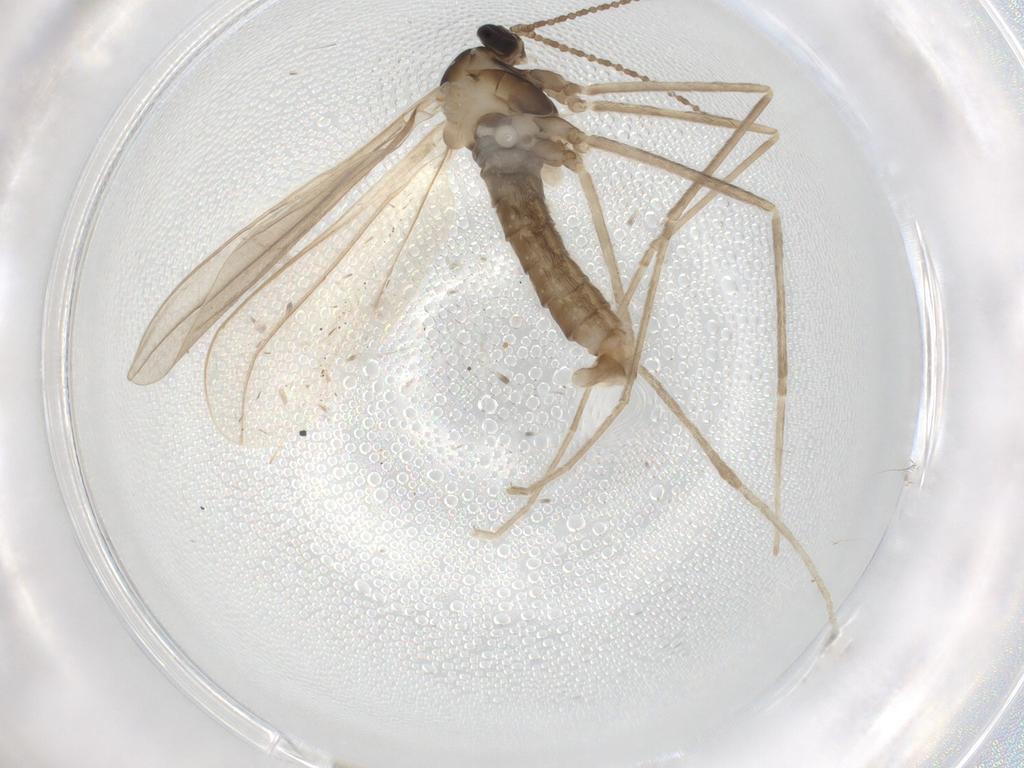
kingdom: Animalia
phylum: Arthropoda
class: Insecta
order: Diptera
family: Cecidomyiidae
